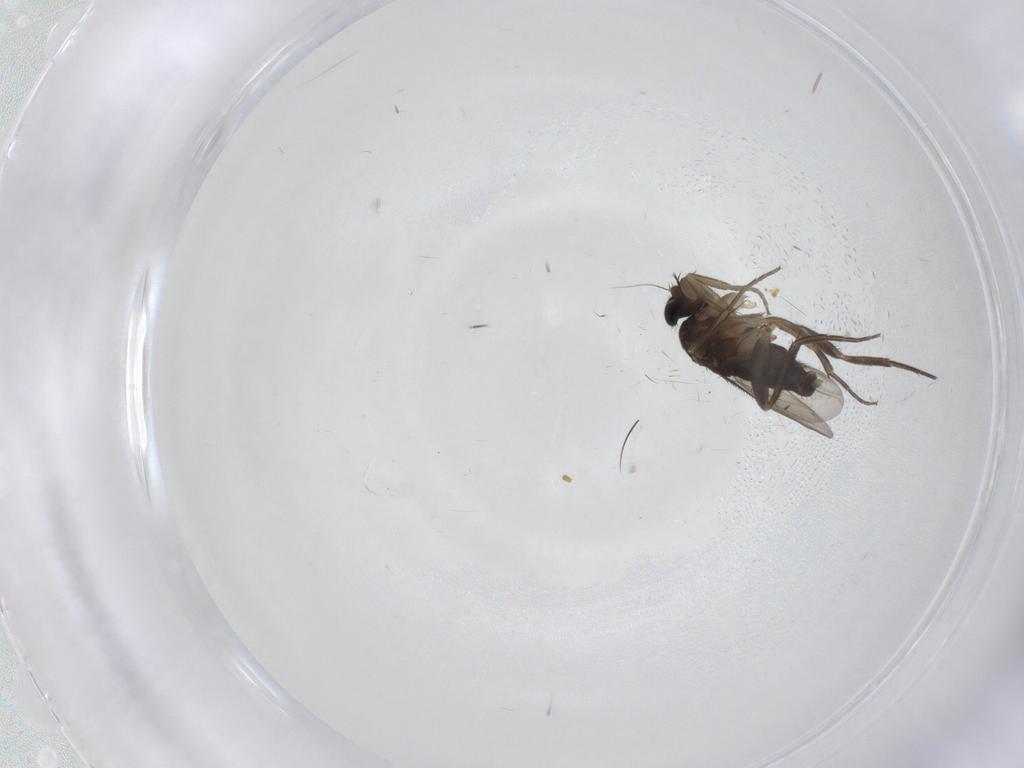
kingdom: Animalia
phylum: Arthropoda
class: Insecta
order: Diptera
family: Phoridae
